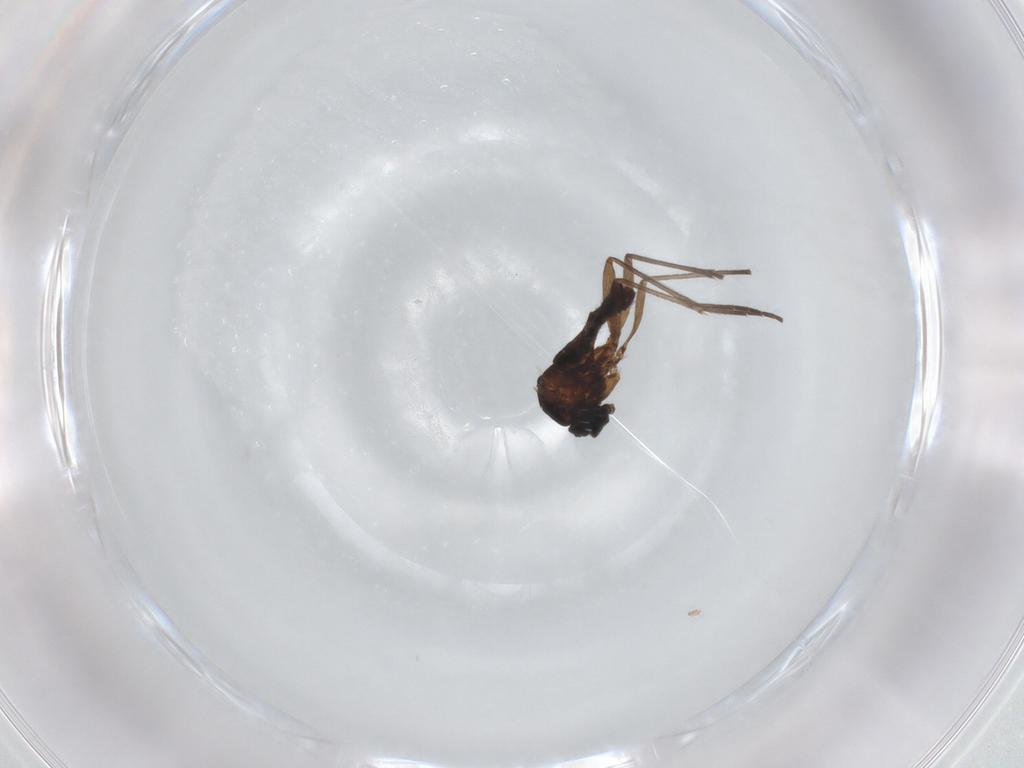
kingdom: Animalia
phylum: Arthropoda
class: Insecta
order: Diptera
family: Sciaridae
